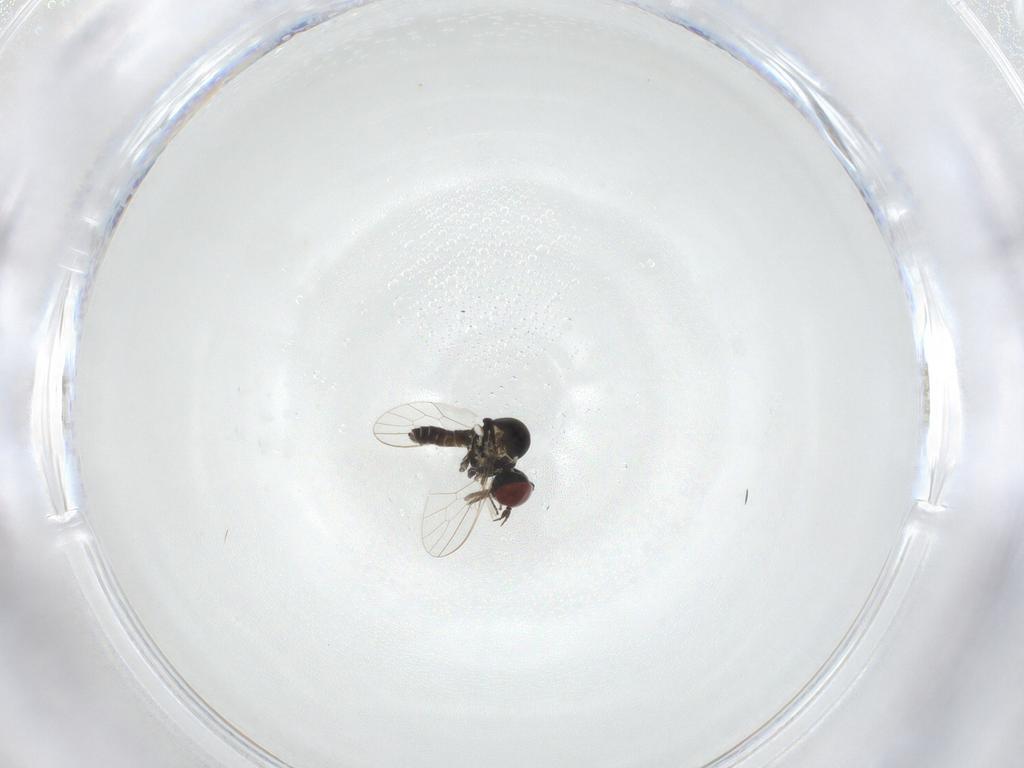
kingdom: Animalia
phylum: Arthropoda
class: Insecta
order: Diptera
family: Mythicomyiidae
